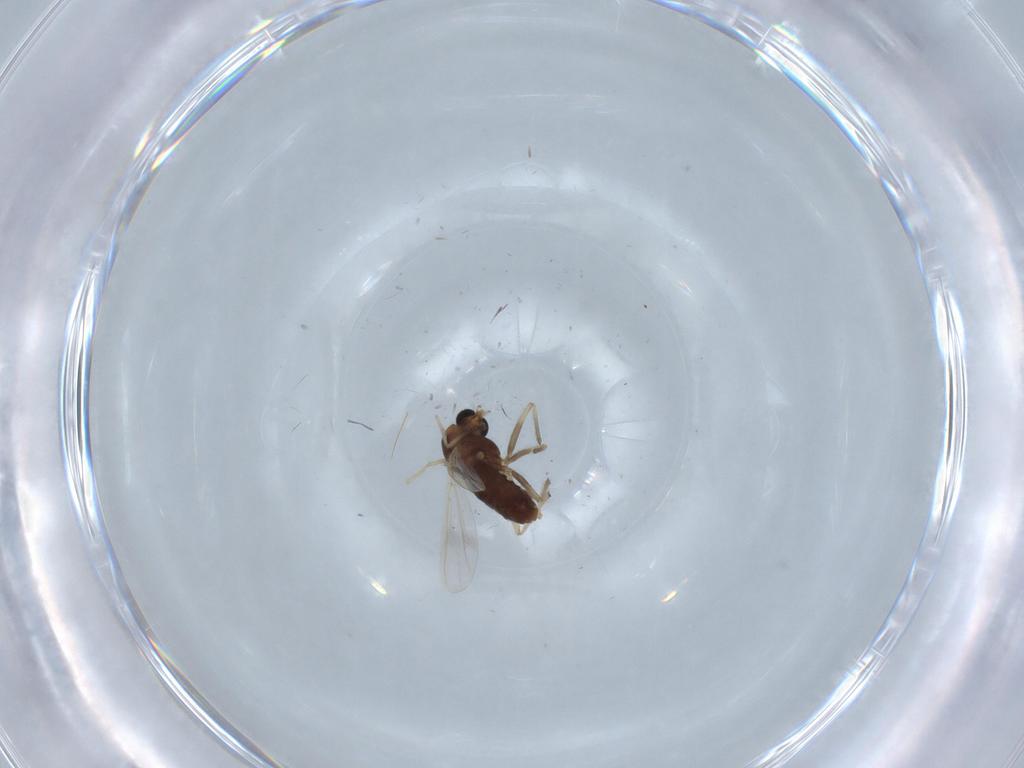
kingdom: Animalia
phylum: Arthropoda
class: Insecta
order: Diptera
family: Chironomidae
